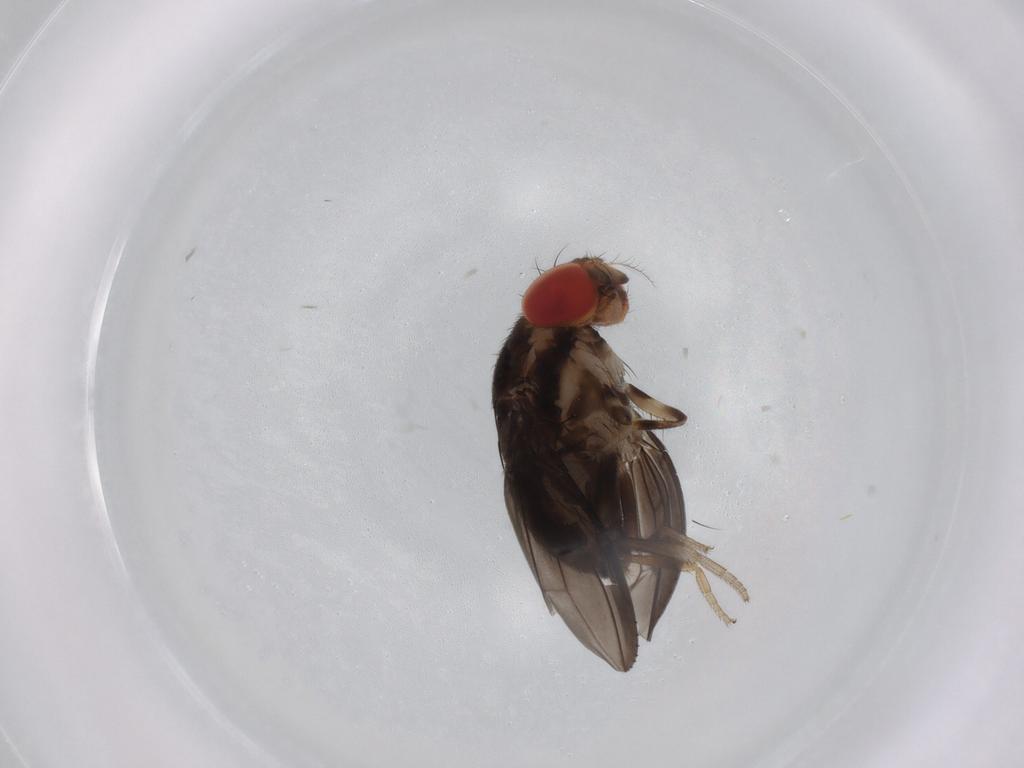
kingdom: Animalia
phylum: Arthropoda
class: Insecta
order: Diptera
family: Drosophilidae
